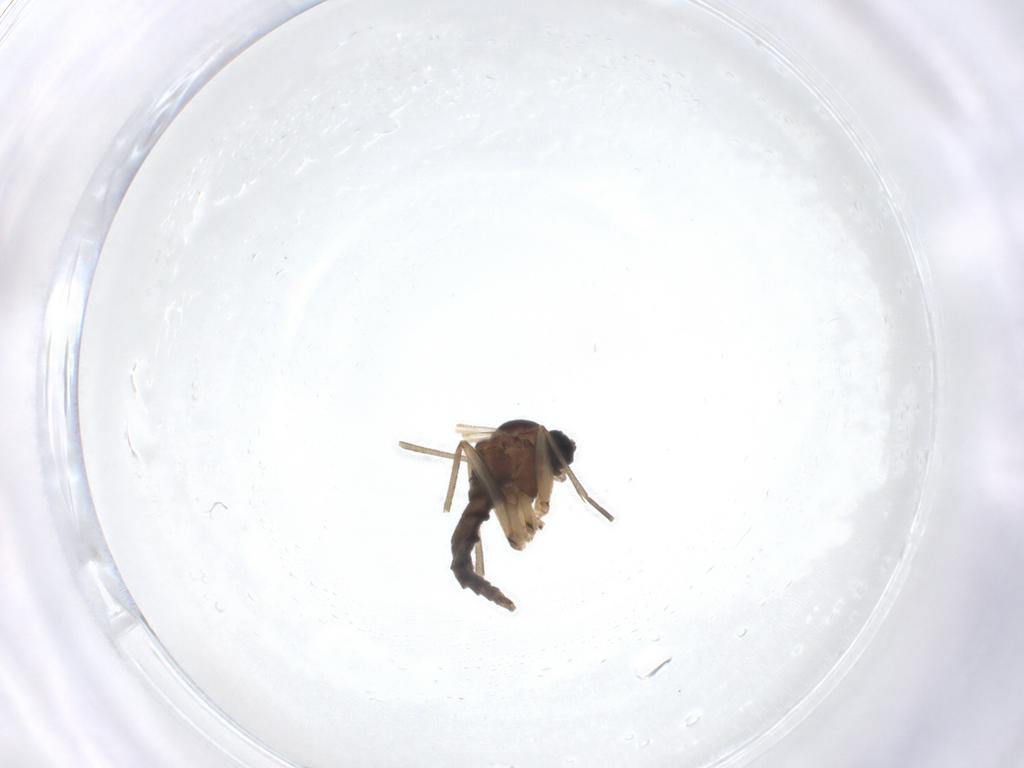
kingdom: Animalia
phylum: Arthropoda
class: Insecta
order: Diptera
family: Sciaridae
